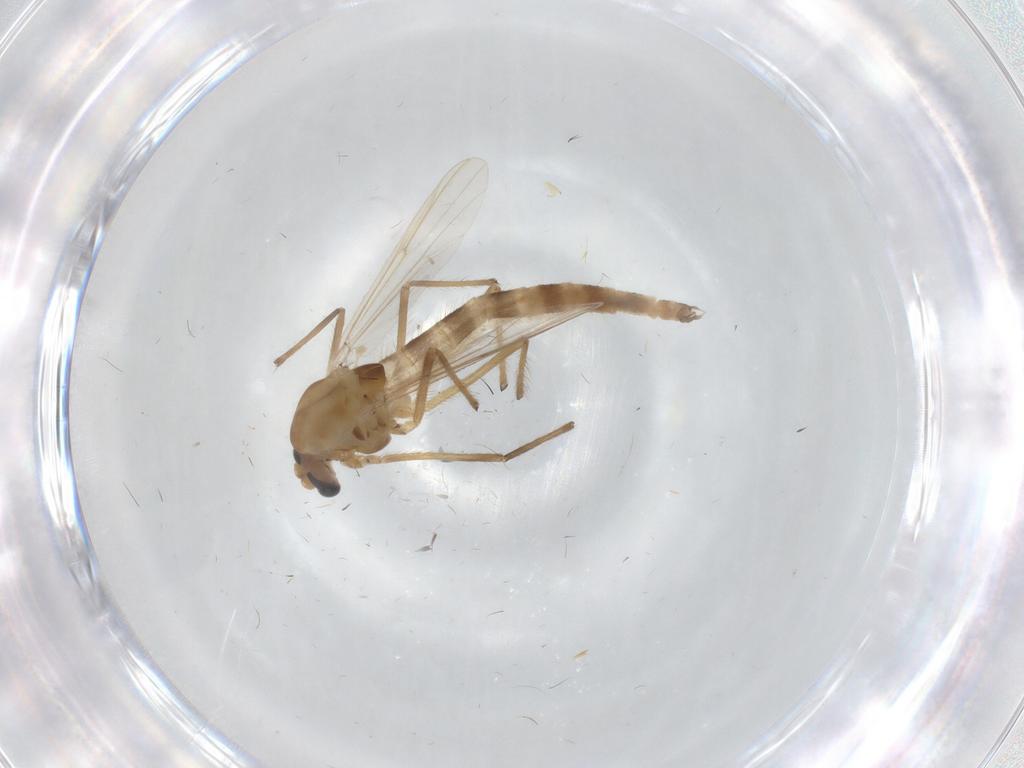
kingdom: Animalia
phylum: Arthropoda
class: Insecta
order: Diptera
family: Chironomidae
